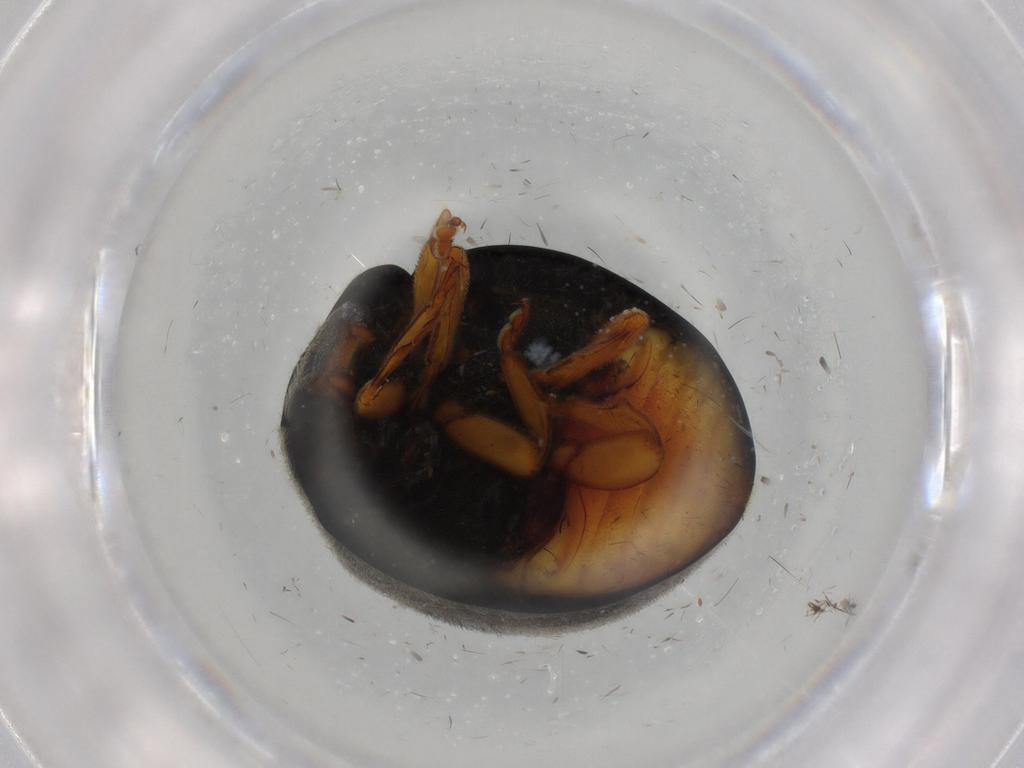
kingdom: Animalia
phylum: Arthropoda
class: Insecta
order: Coleoptera
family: Coccinellidae
